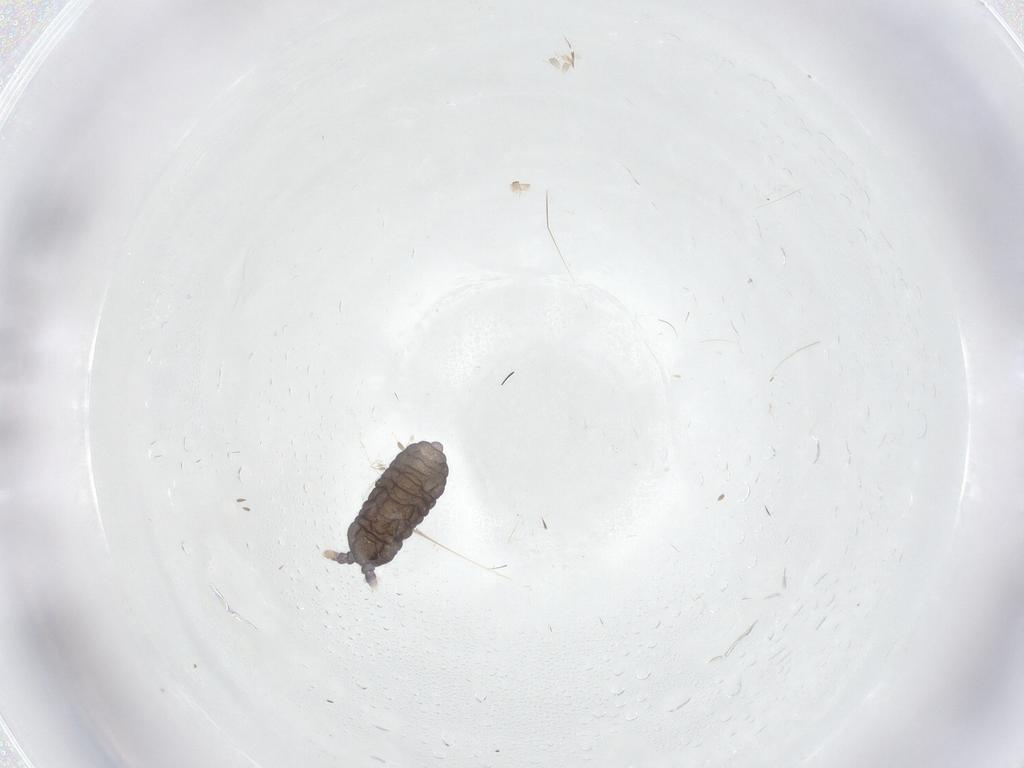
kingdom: Animalia
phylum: Arthropoda
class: Collembola
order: Poduromorpha
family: Neanuridae
